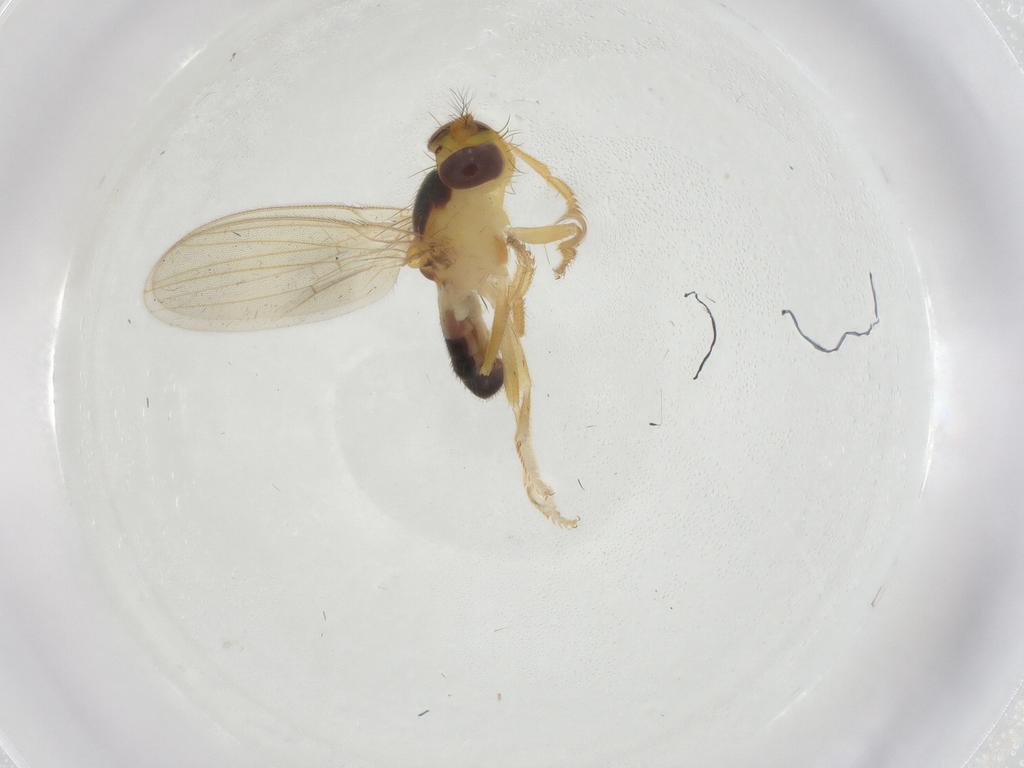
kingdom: Animalia
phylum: Arthropoda
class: Insecta
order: Diptera
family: Periscelididae
